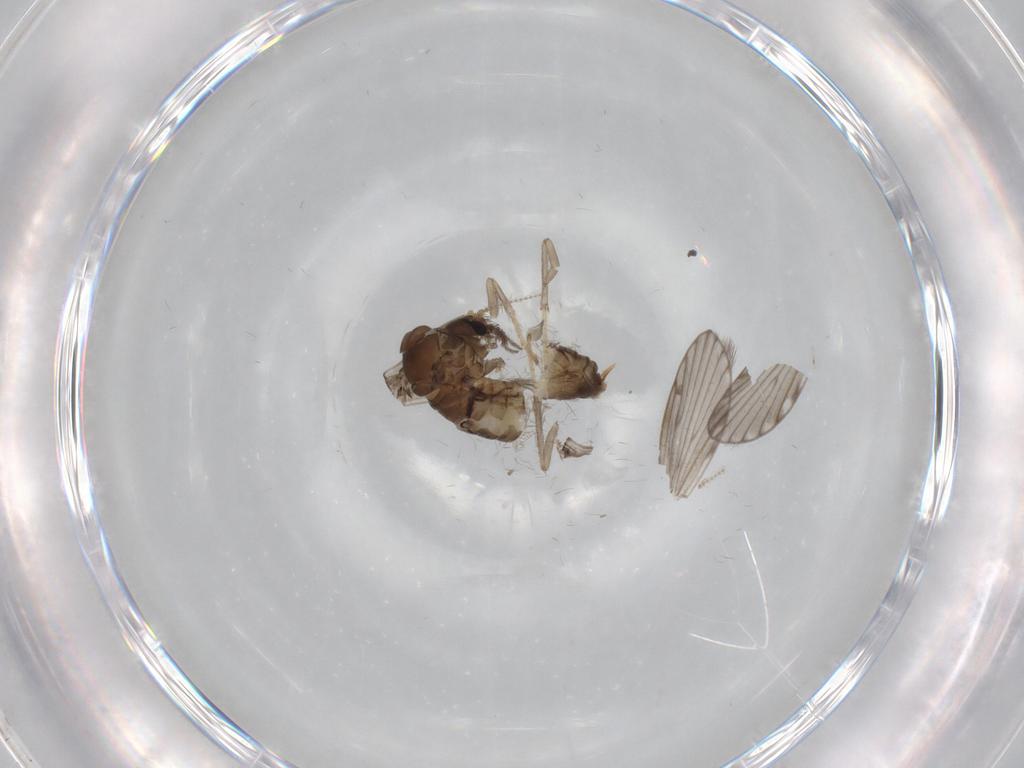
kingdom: Animalia
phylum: Arthropoda
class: Insecta
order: Diptera
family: Psychodidae
